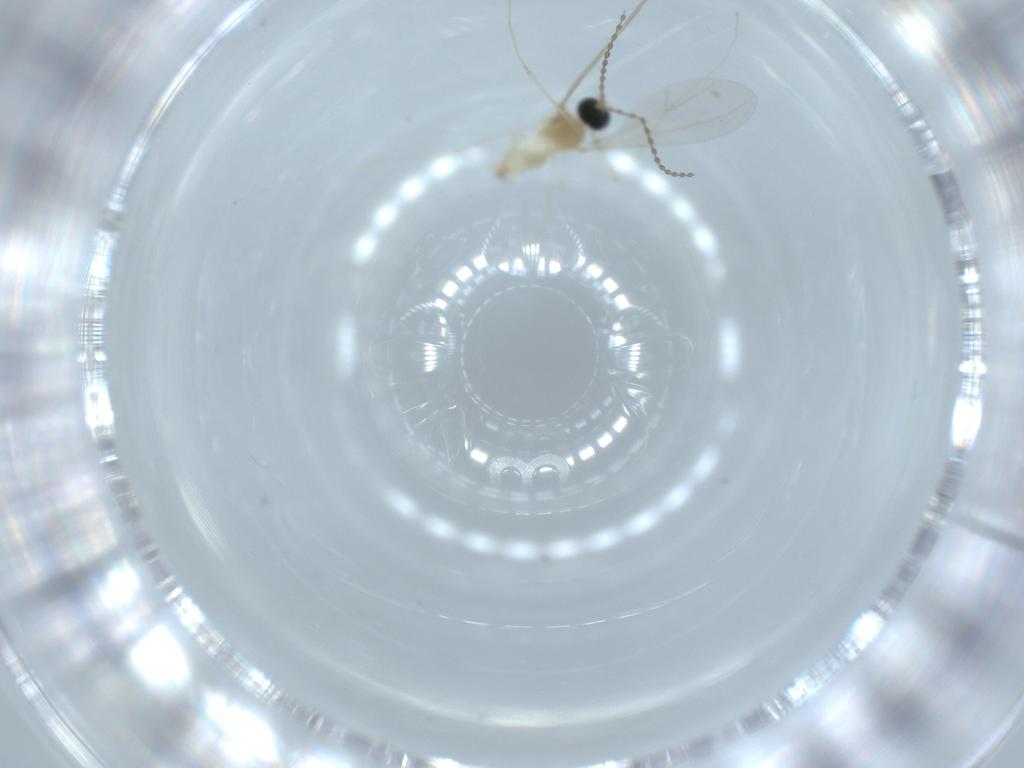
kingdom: Animalia
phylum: Arthropoda
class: Insecta
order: Diptera
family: Cecidomyiidae
